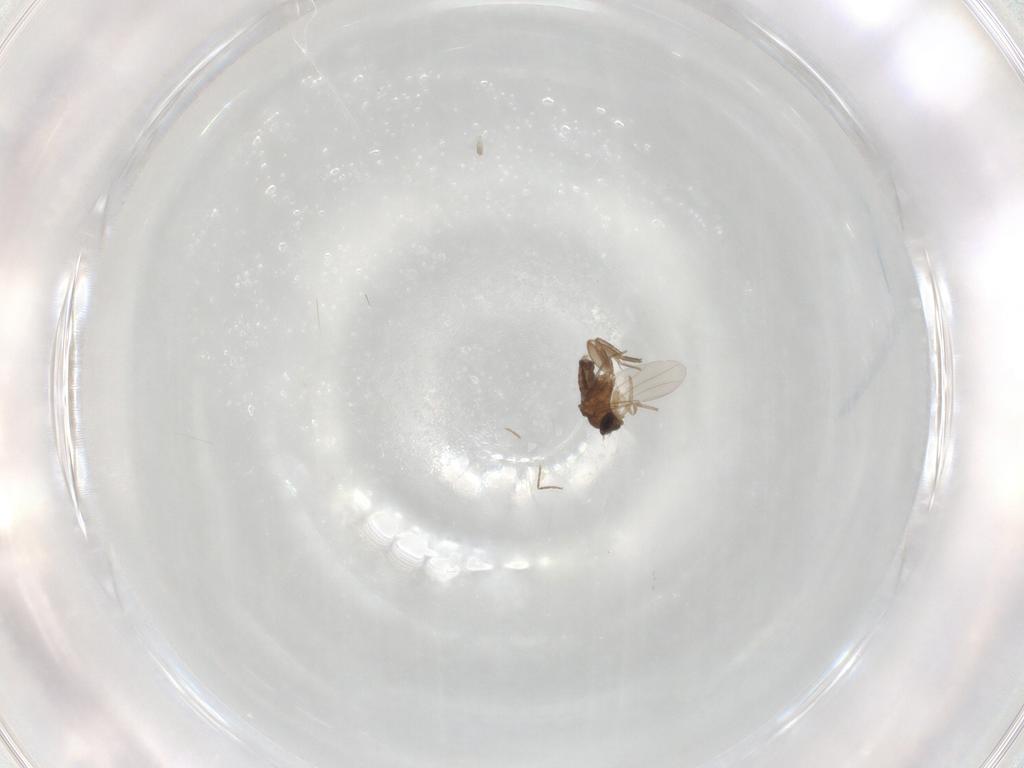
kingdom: Animalia
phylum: Arthropoda
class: Insecta
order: Diptera
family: Phoridae
